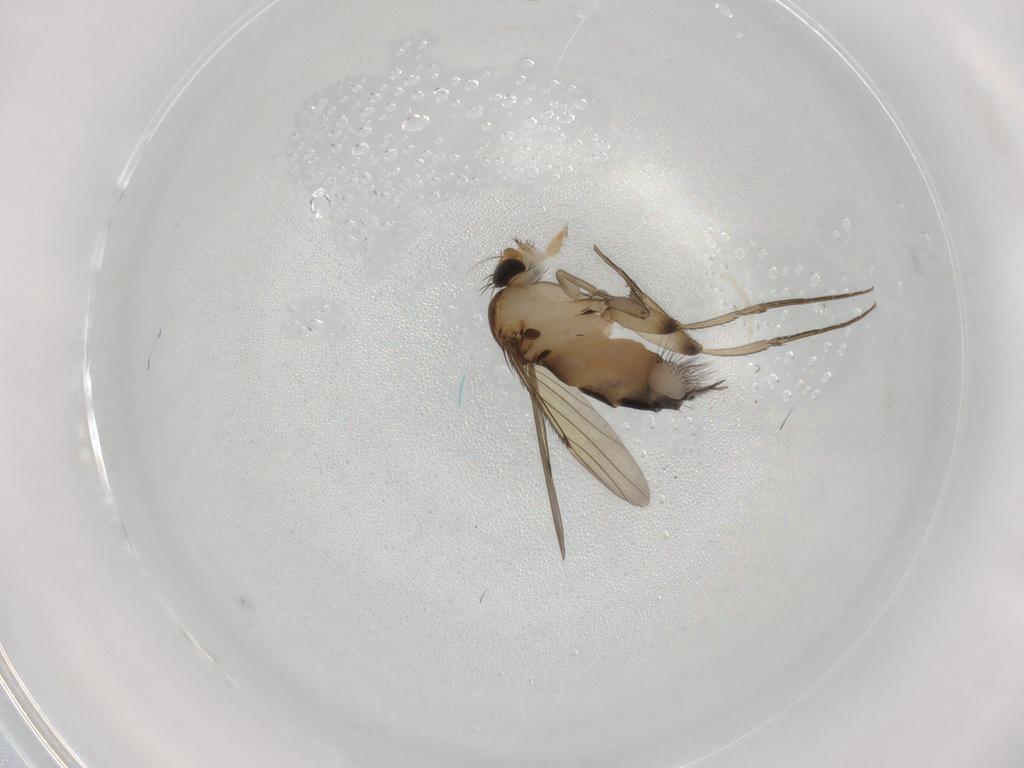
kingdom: Animalia
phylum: Arthropoda
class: Insecta
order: Diptera
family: Phoridae
